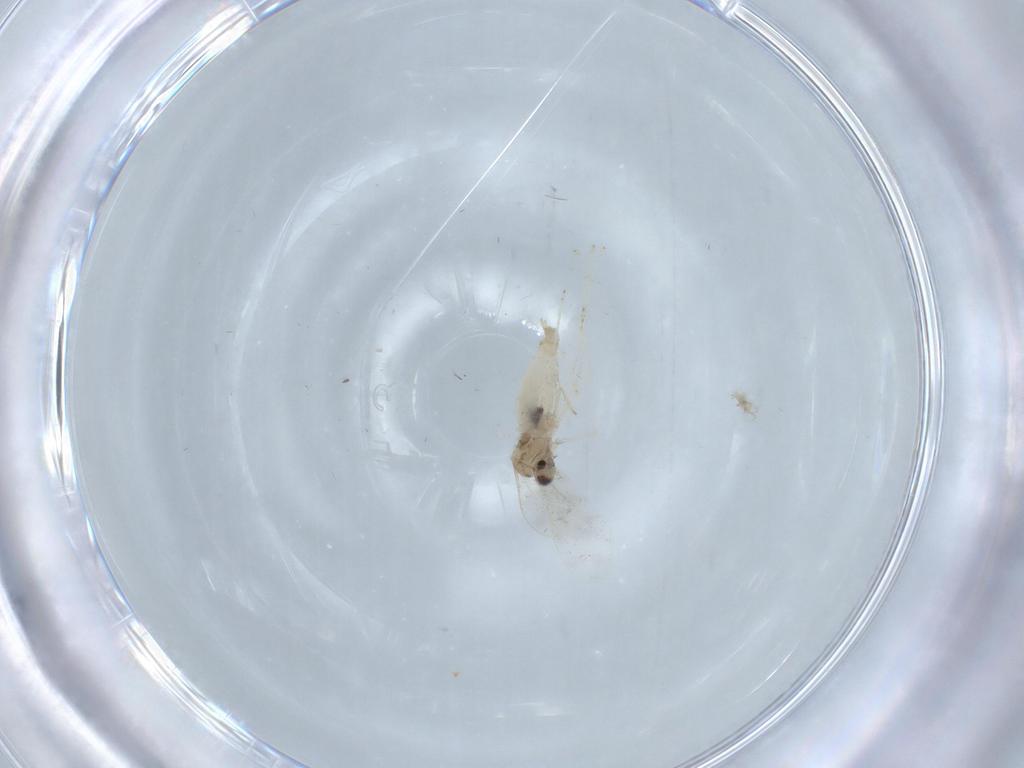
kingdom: Animalia
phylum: Arthropoda
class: Insecta
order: Diptera
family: Cecidomyiidae
